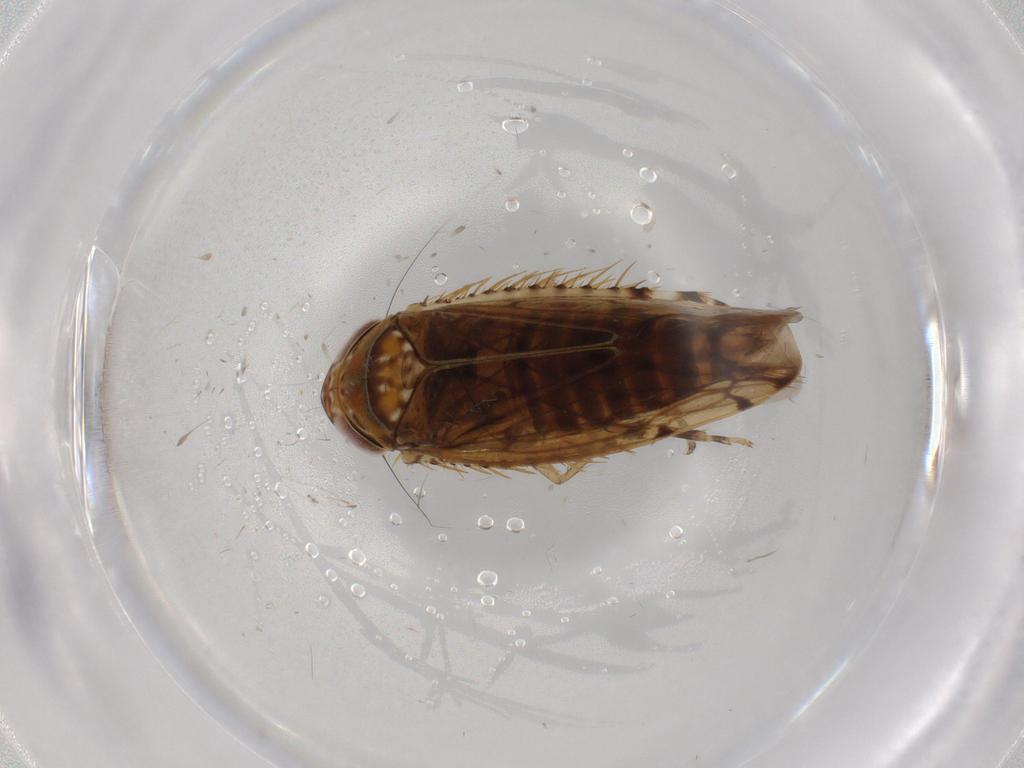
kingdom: Animalia
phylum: Arthropoda
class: Insecta
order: Hemiptera
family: Cicadellidae
